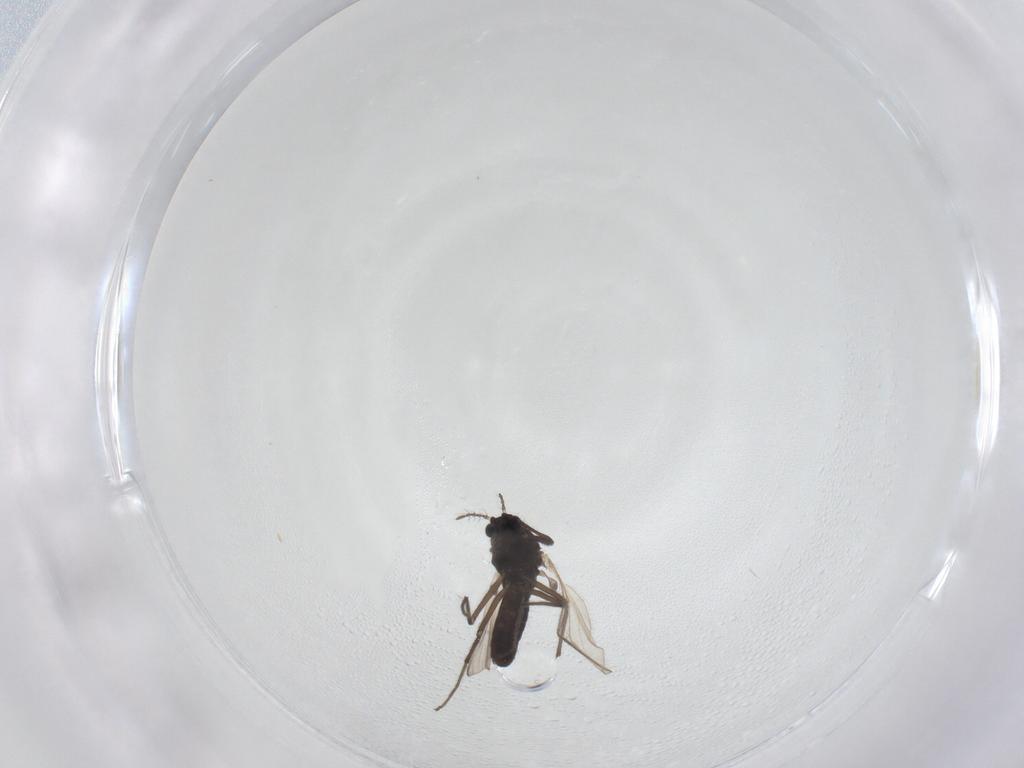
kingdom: Animalia
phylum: Arthropoda
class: Insecta
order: Diptera
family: Chironomidae
